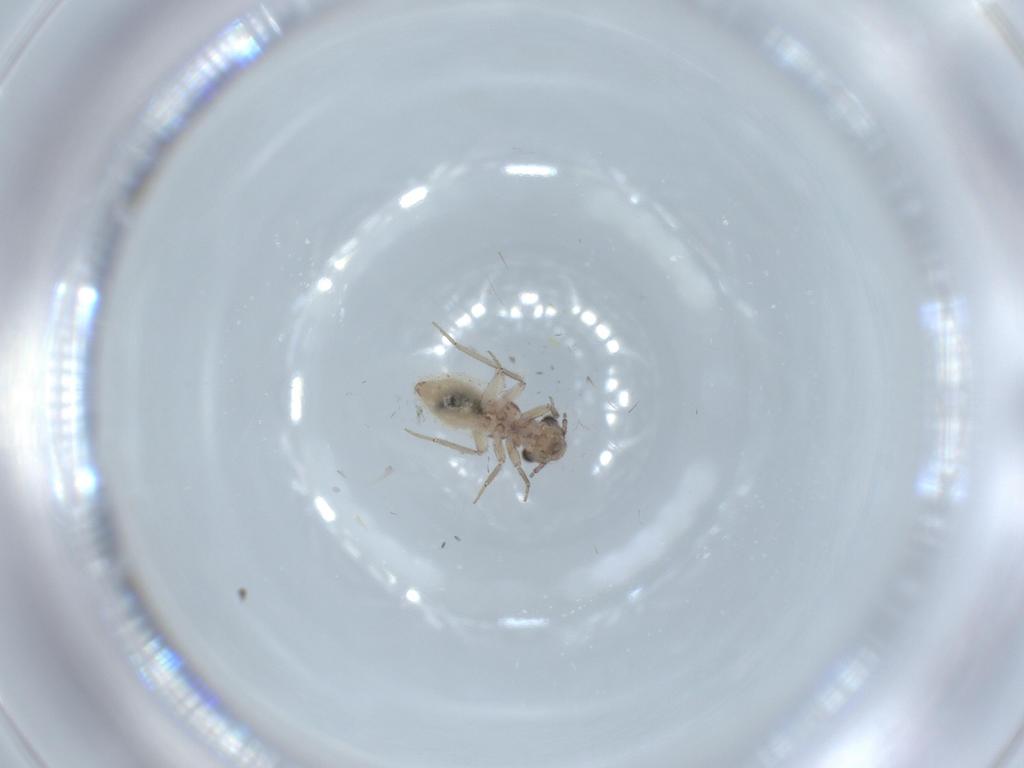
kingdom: Animalia
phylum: Arthropoda
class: Insecta
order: Psocodea
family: Lepidopsocidae
